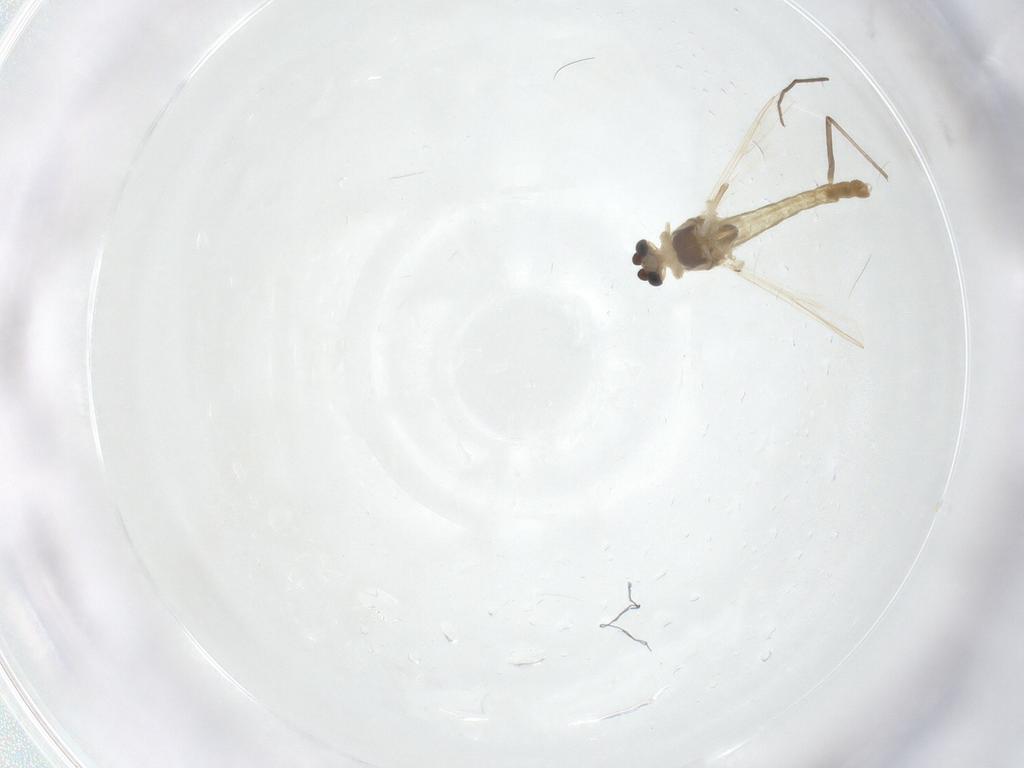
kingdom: Animalia
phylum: Arthropoda
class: Insecta
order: Diptera
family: Chironomidae
